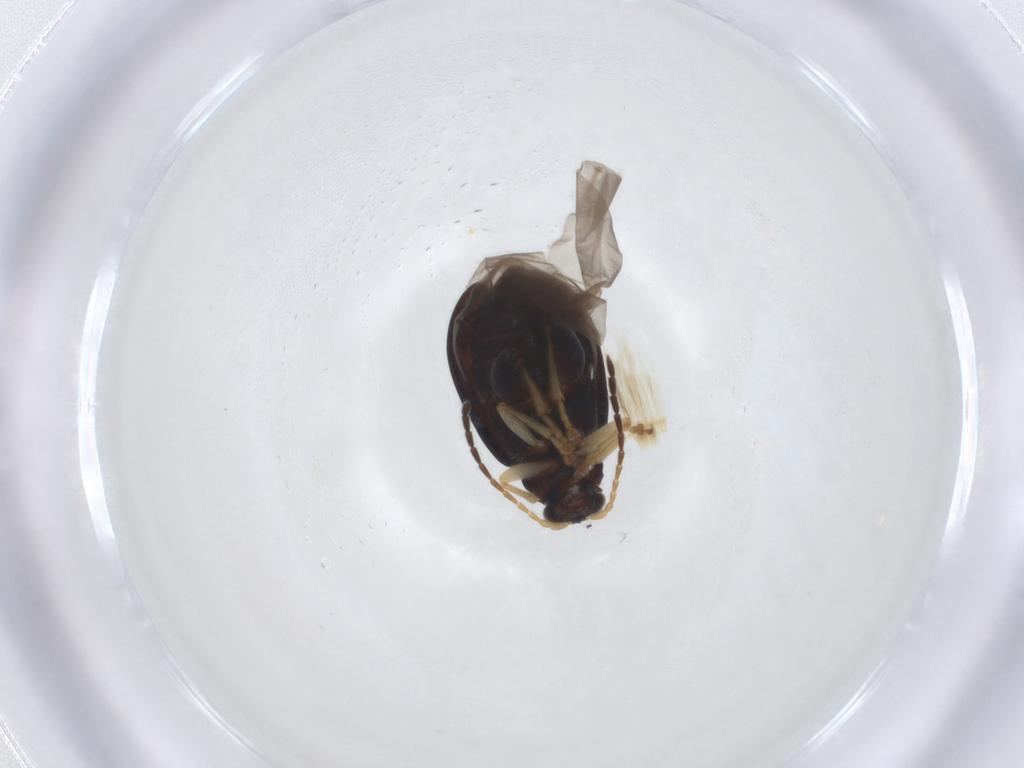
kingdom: Animalia
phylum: Arthropoda
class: Insecta
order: Coleoptera
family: Chrysomelidae
